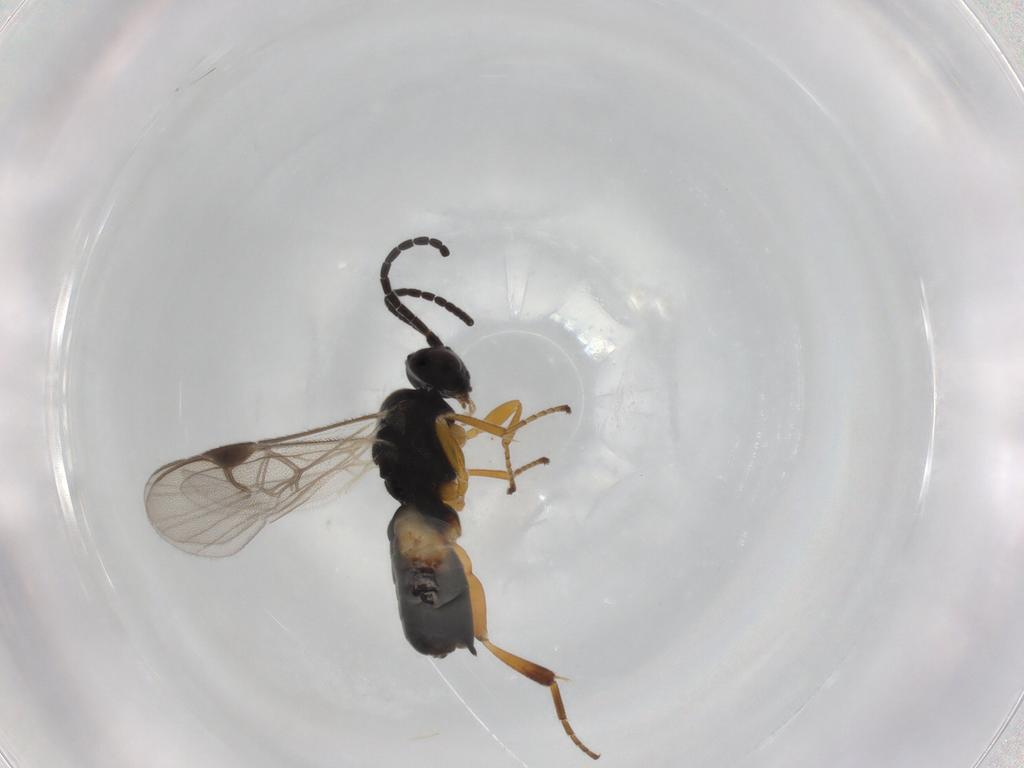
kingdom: Animalia
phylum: Arthropoda
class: Insecta
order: Hymenoptera
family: Braconidae
